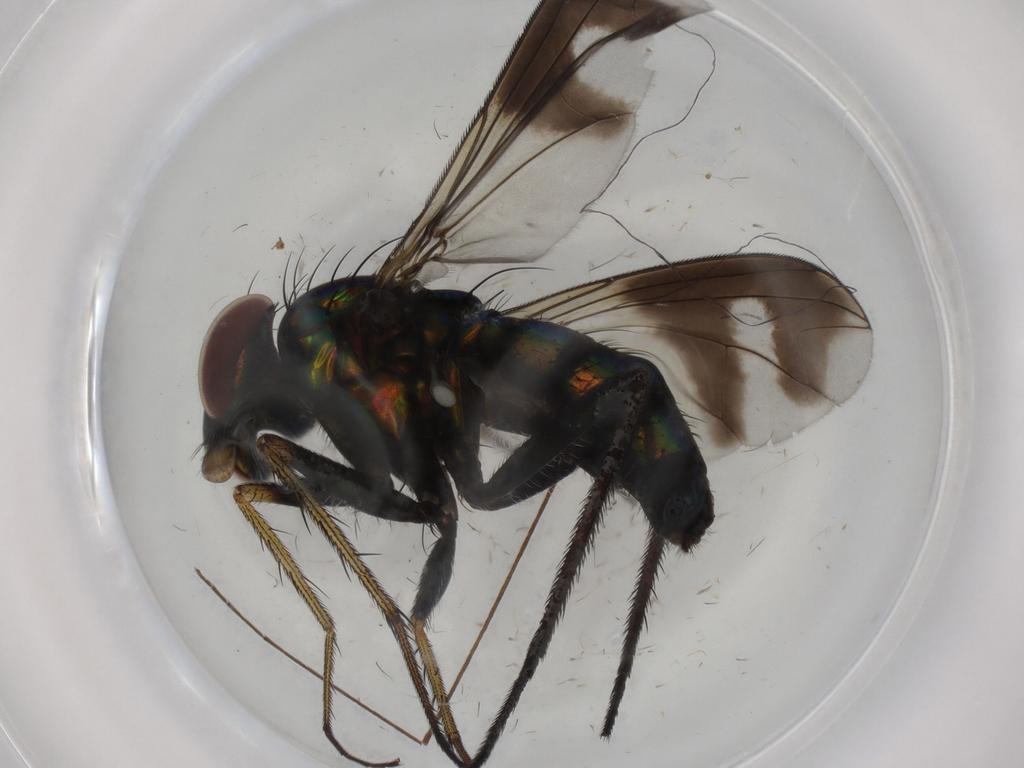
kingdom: Animalia
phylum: Arthropoda
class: Insecta
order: Diptera
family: Dolichopodidae
